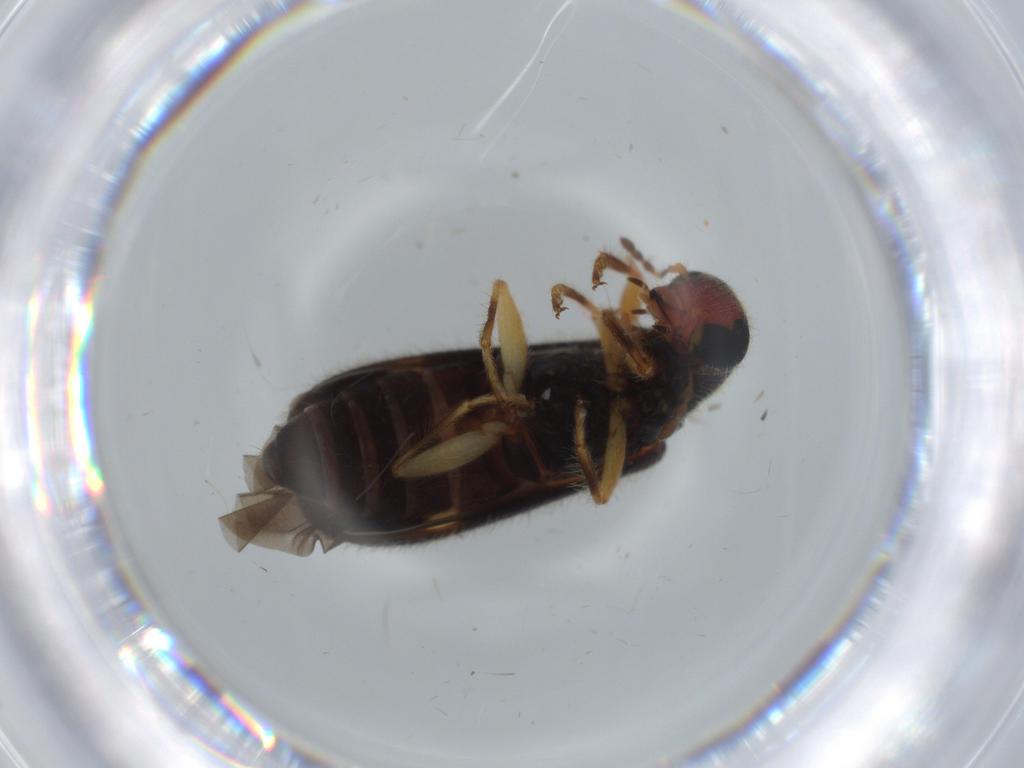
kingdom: Animalia
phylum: Arthropoda
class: Insecta
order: Coleoptera
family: Cleridae
